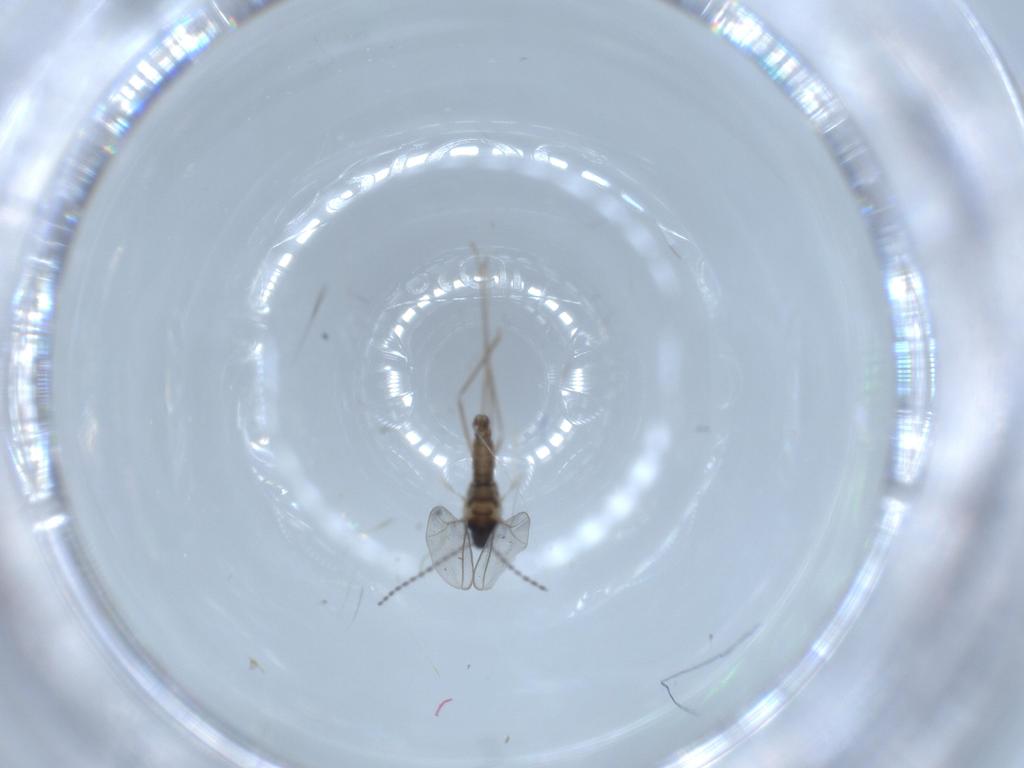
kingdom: Animalia
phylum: Arthropoda
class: Insecta
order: Diptera
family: Cecidomyiidae
